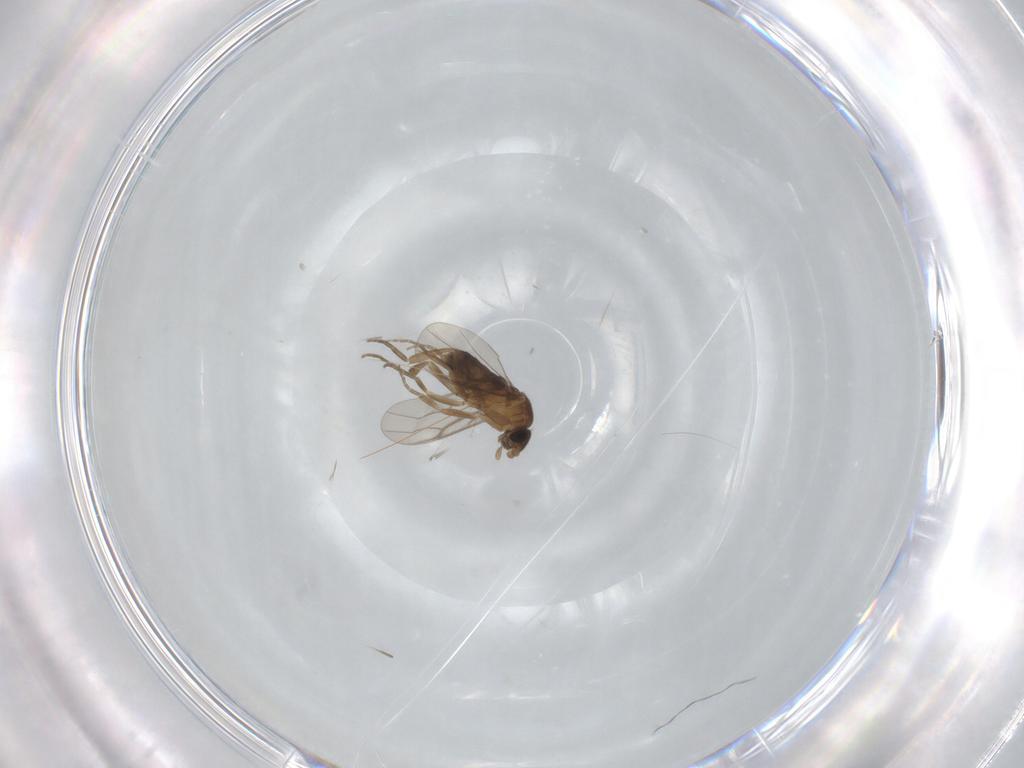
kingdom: Animalia
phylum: Arthropoda
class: Insecta
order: Diptera
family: Phoridae
